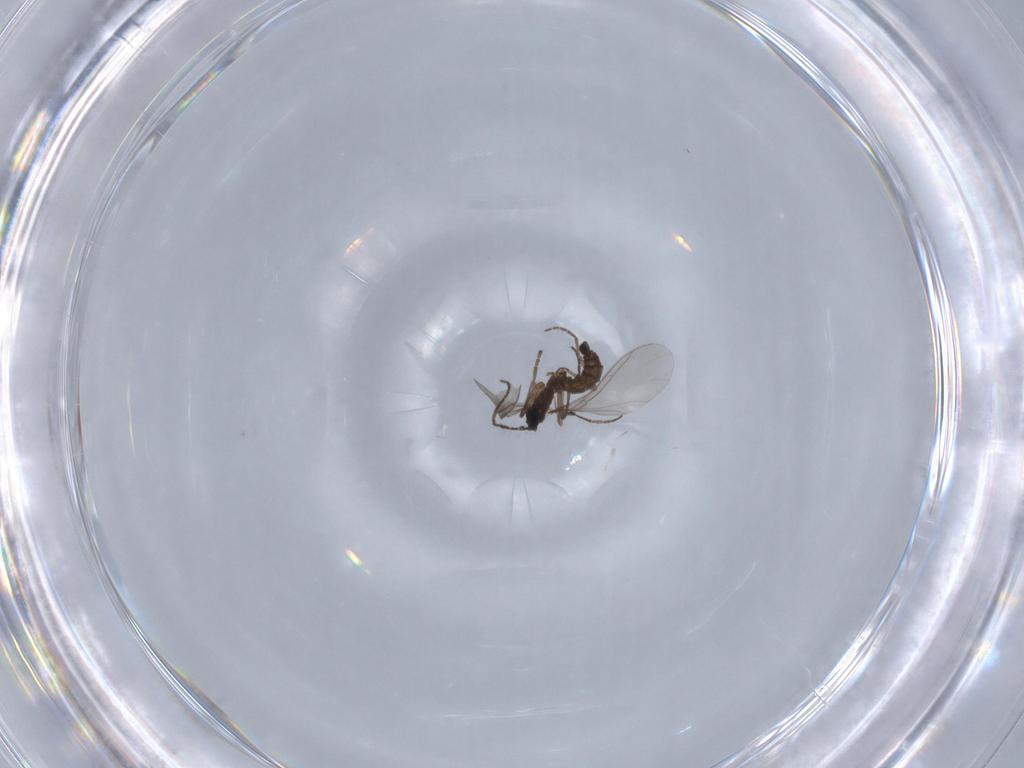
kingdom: Animalia
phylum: Arthropoda
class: Insecta
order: Diptera
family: Sciaridae
